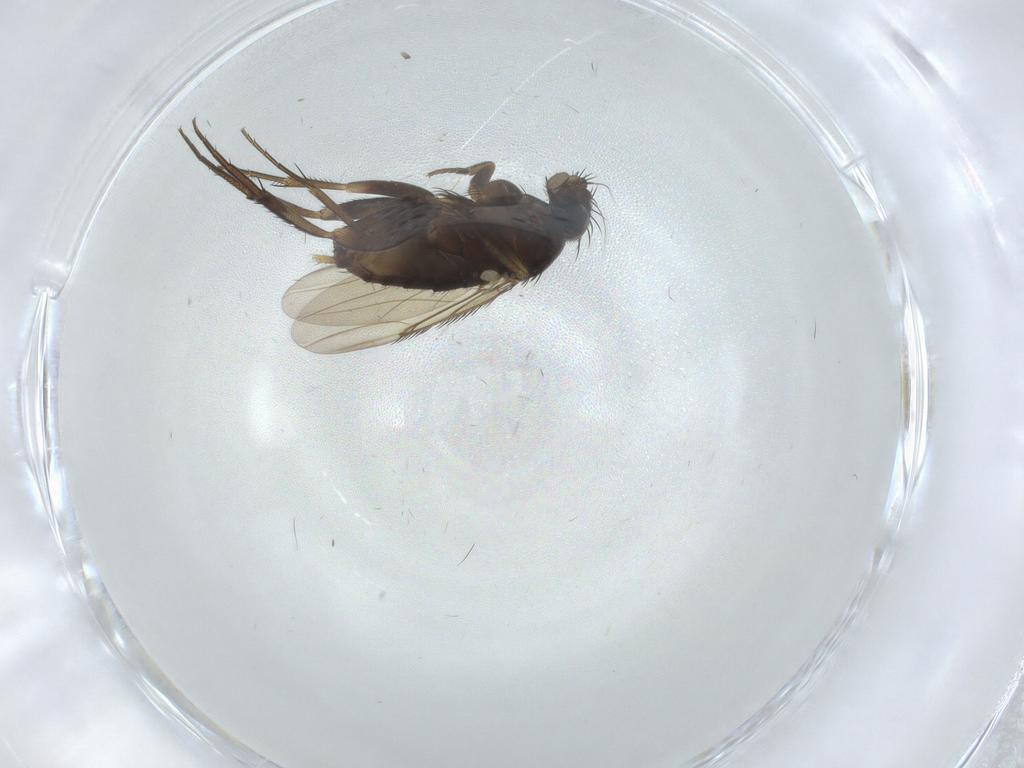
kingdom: Animalia
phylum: Arthropoda
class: Insecta
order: Diptera
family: Phoridae
